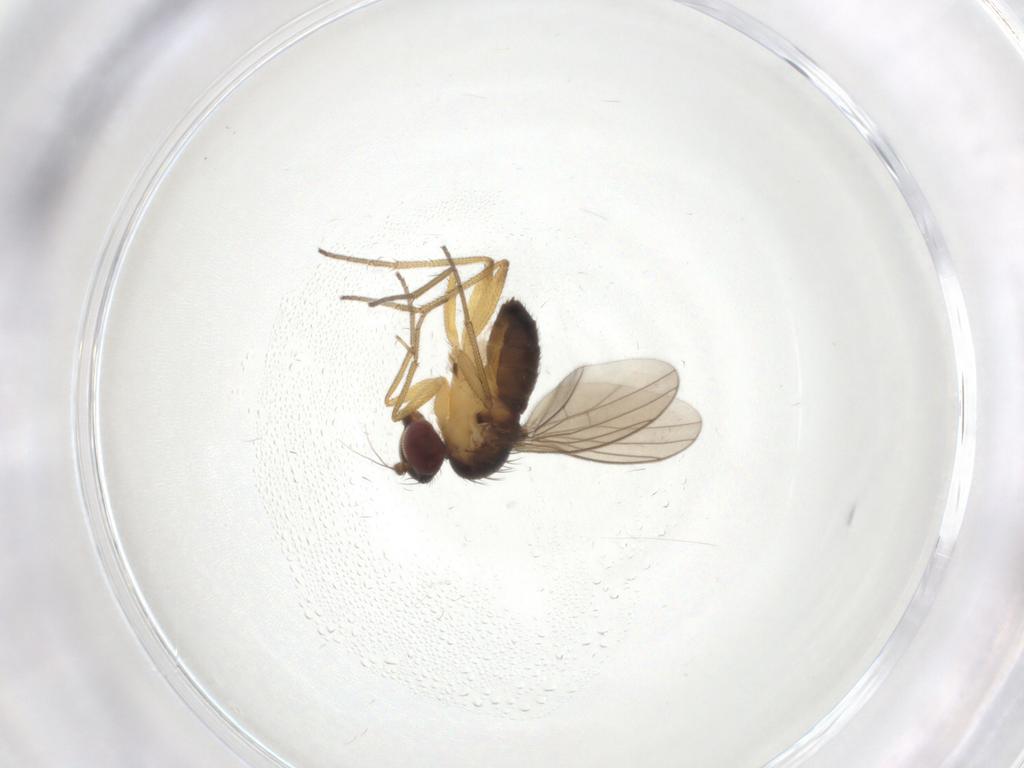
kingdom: Animalia
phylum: Arthropoda
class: Insecta
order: Diptera
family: Dolichopodidae
